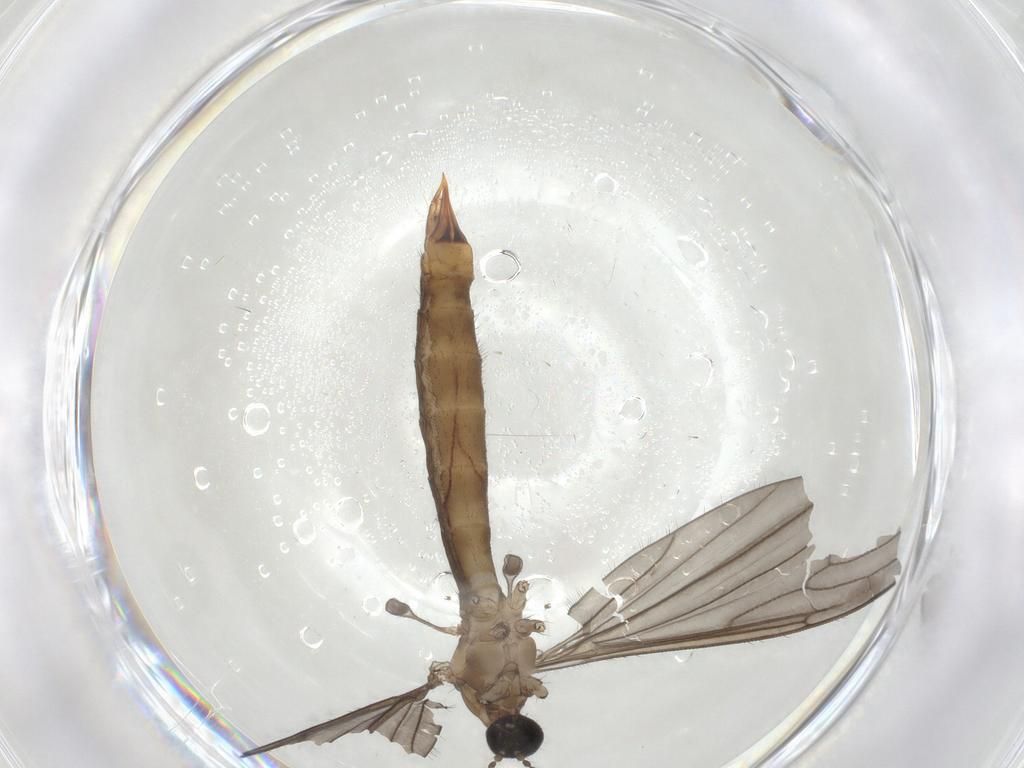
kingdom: Animalia
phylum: Arthropoda
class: Insecta
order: Diptera
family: Limoniidae
